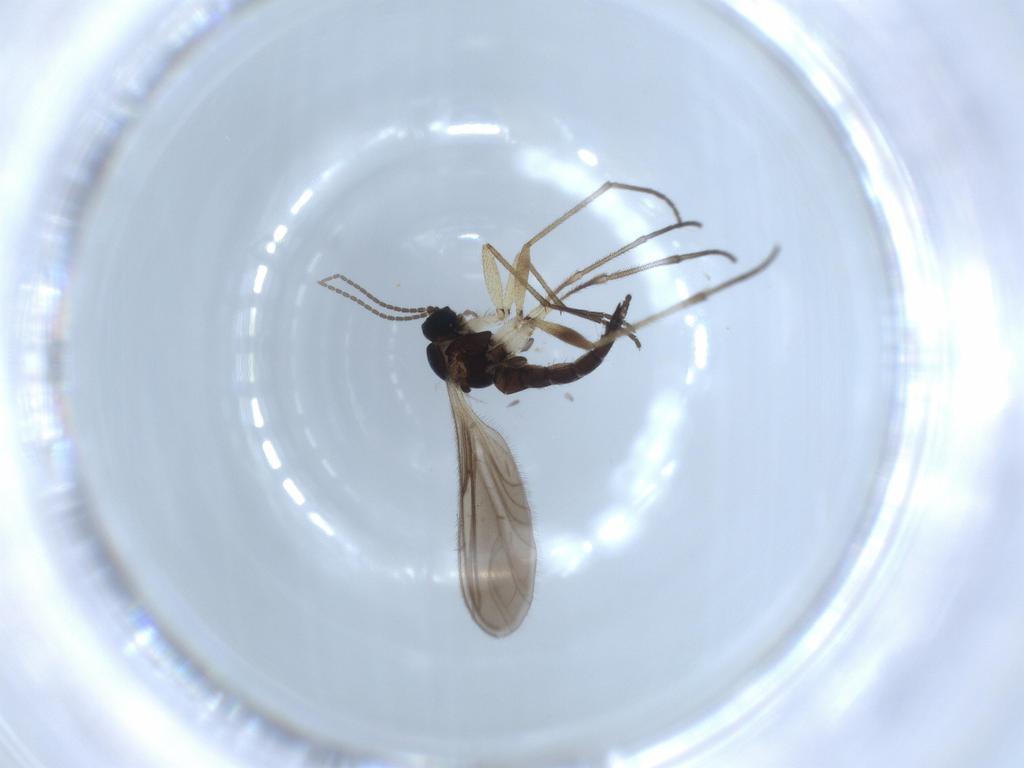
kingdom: Animalia
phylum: Arthropoda
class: Insecta
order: Diptera
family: Sciaridae
